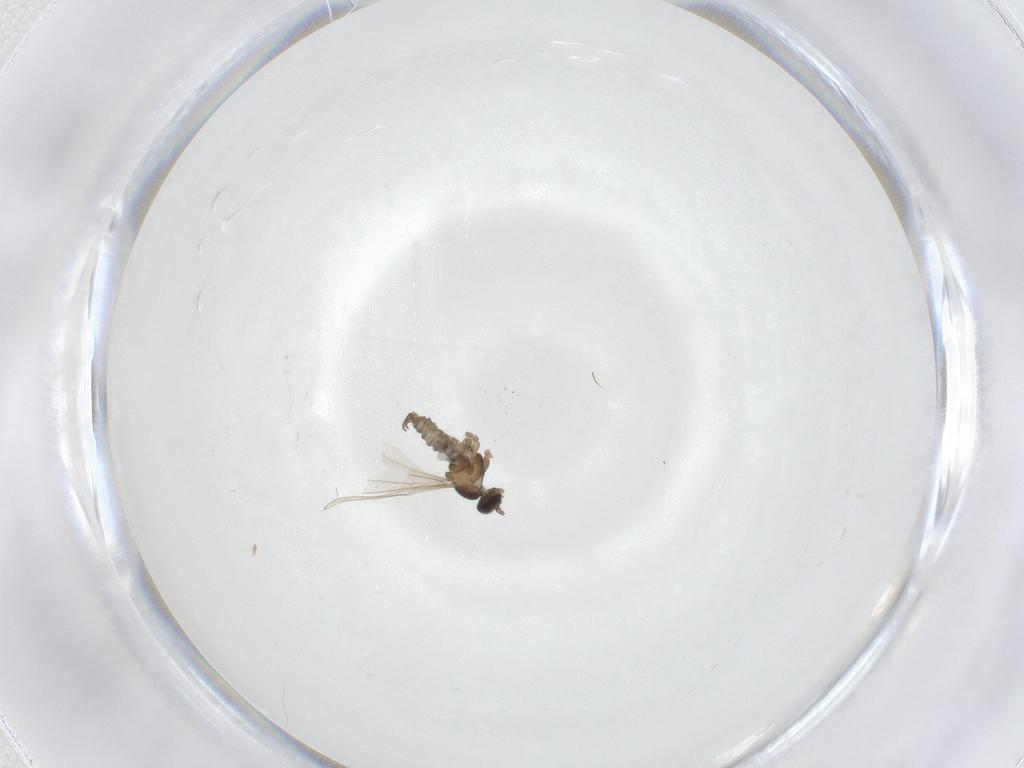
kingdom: Animalia
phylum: Arthropoda
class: Insecta
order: Diptera
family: Cecidomyiidae
